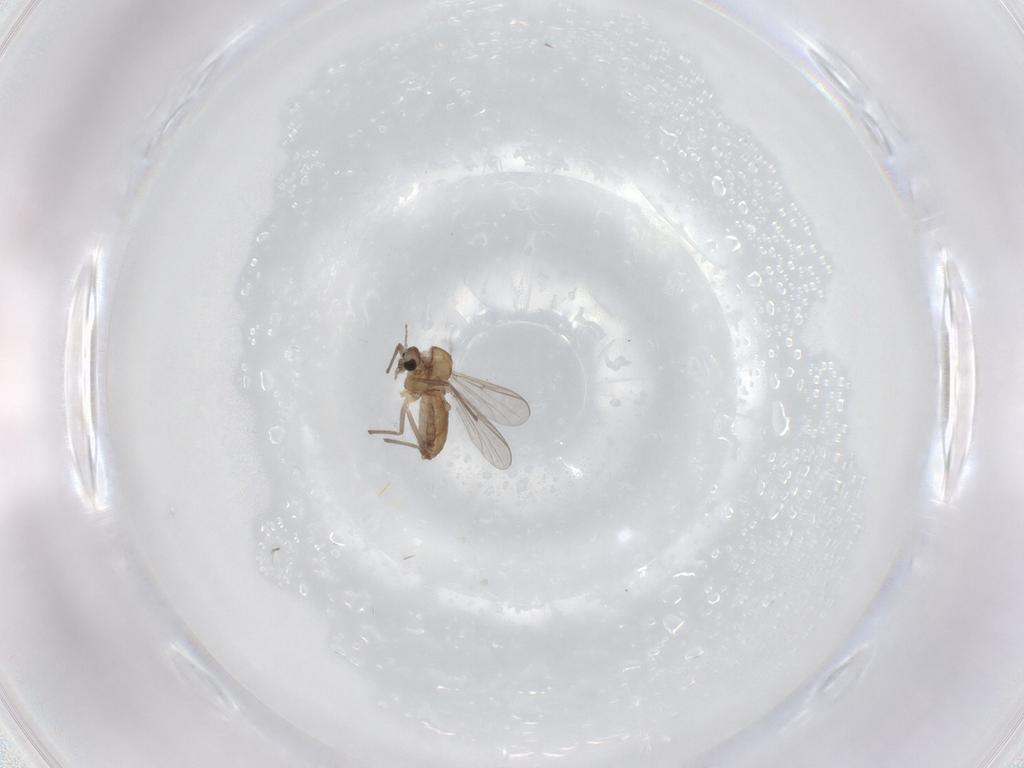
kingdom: Animalia
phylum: Arthropoda
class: Insecta
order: Diptera
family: Chironomidae
